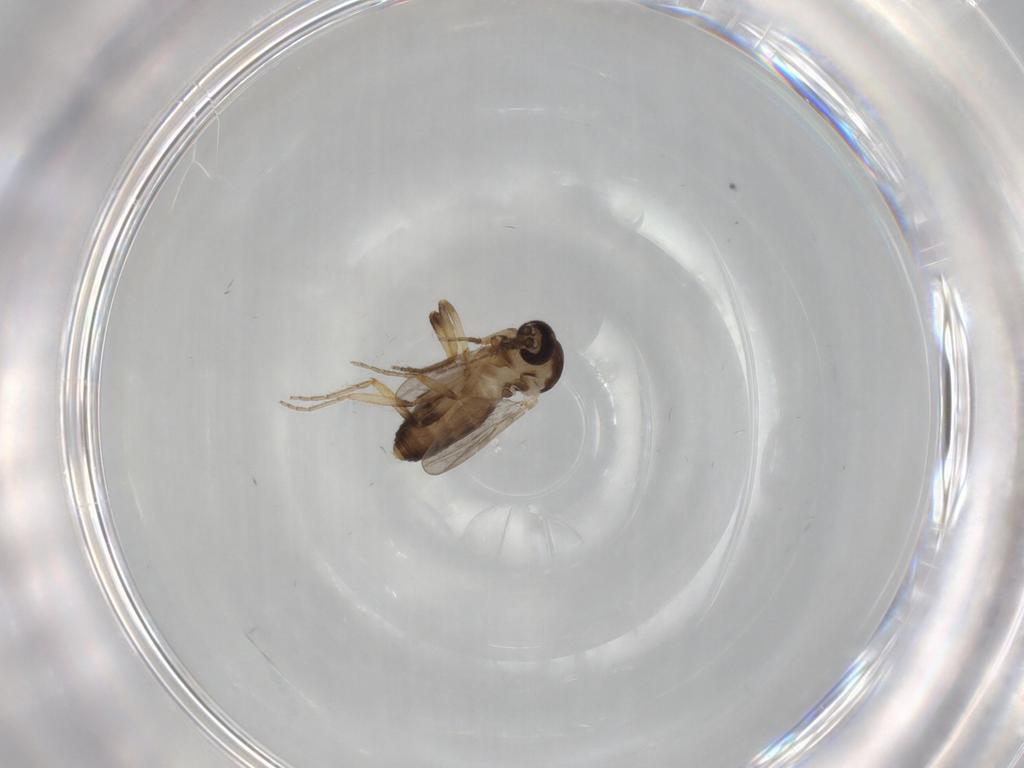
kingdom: Animalia
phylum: Arthropoda
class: Insecta
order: Diptera
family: Ceratopogonidae
